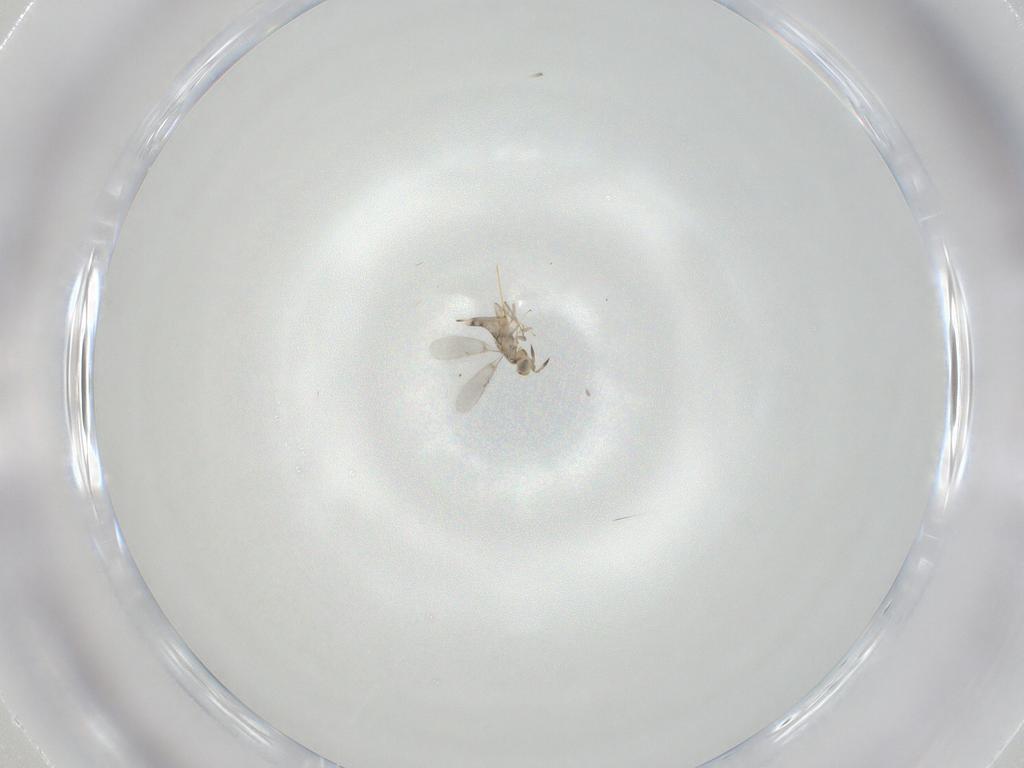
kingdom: Animalia
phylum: Arthropoda
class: Insecta
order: Hymenoptera
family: Aphelinidae
